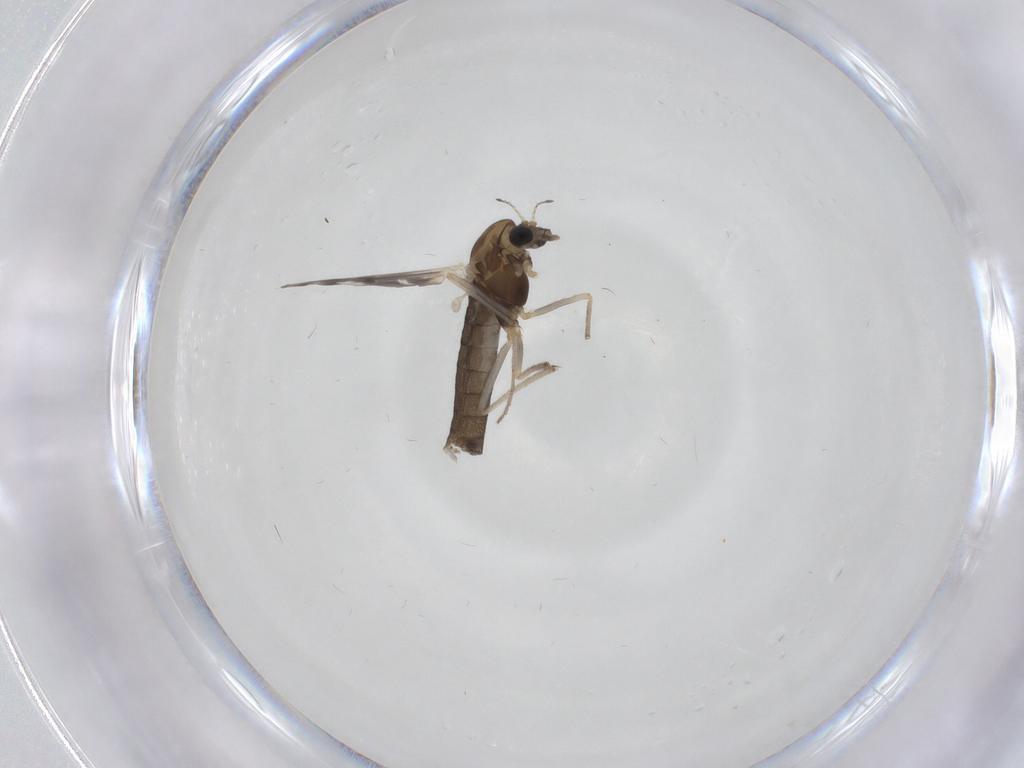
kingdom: Animalia
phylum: Arthropoda
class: Insecta
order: Diptera
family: Chironomidae
